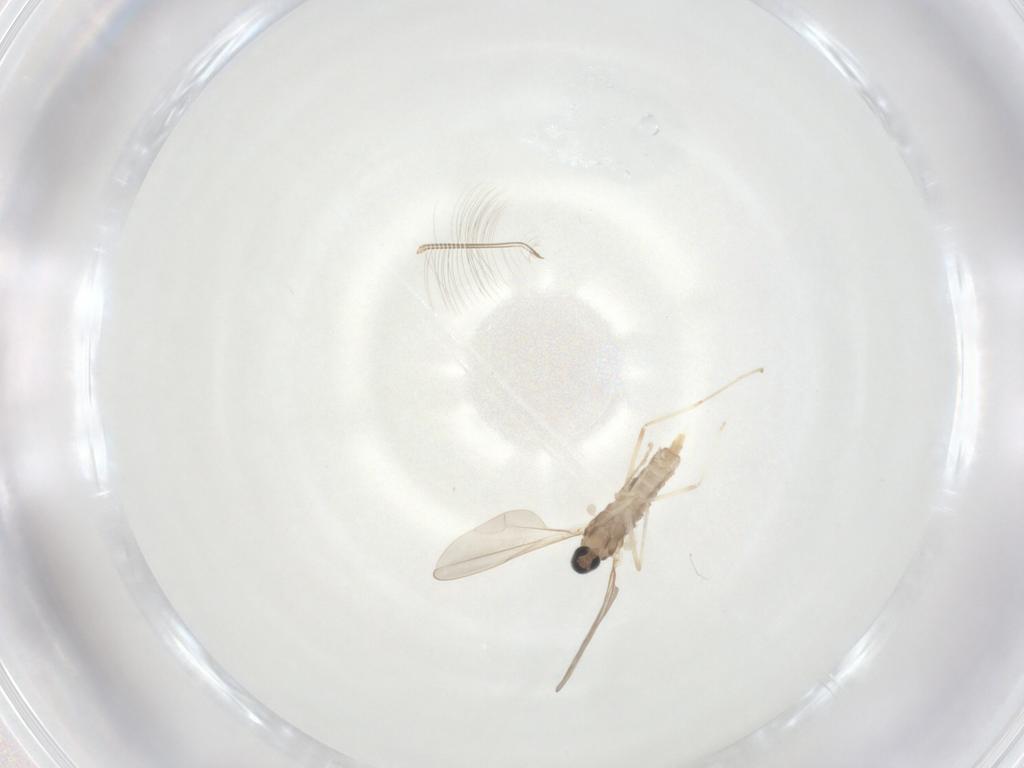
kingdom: Animalia
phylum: Arthropoda
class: Insecta
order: Diptera
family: Cecidomyiidae
